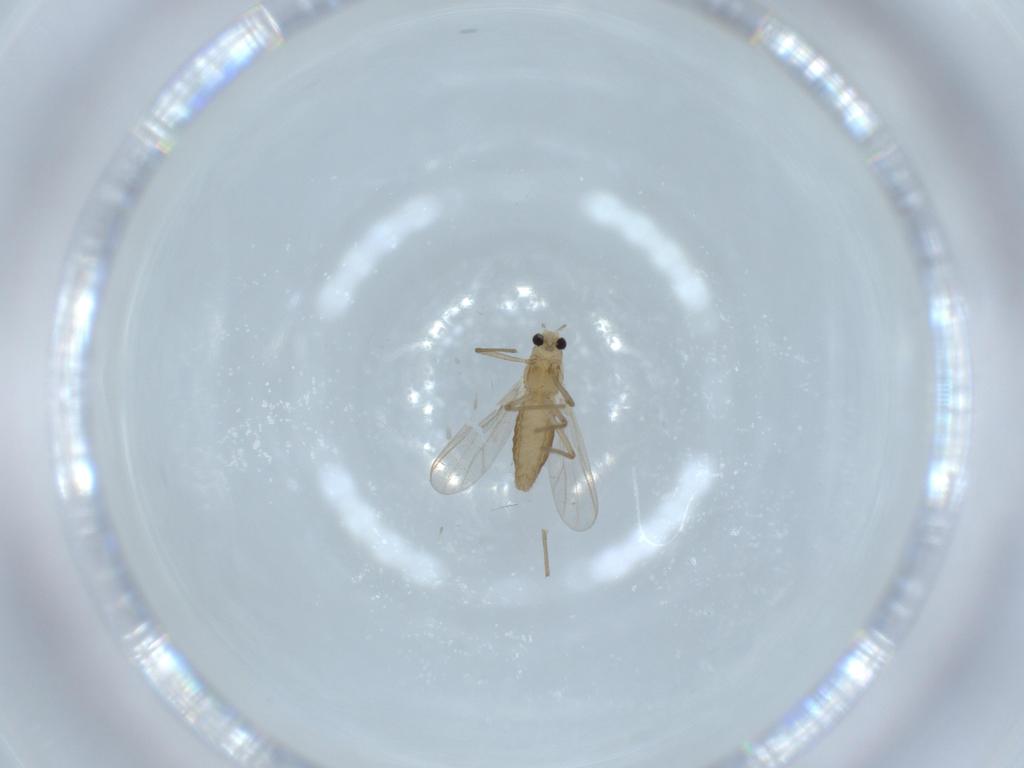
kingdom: Animalia
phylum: Arthropoda
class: Insecta
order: Diptera
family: Chironomidae
